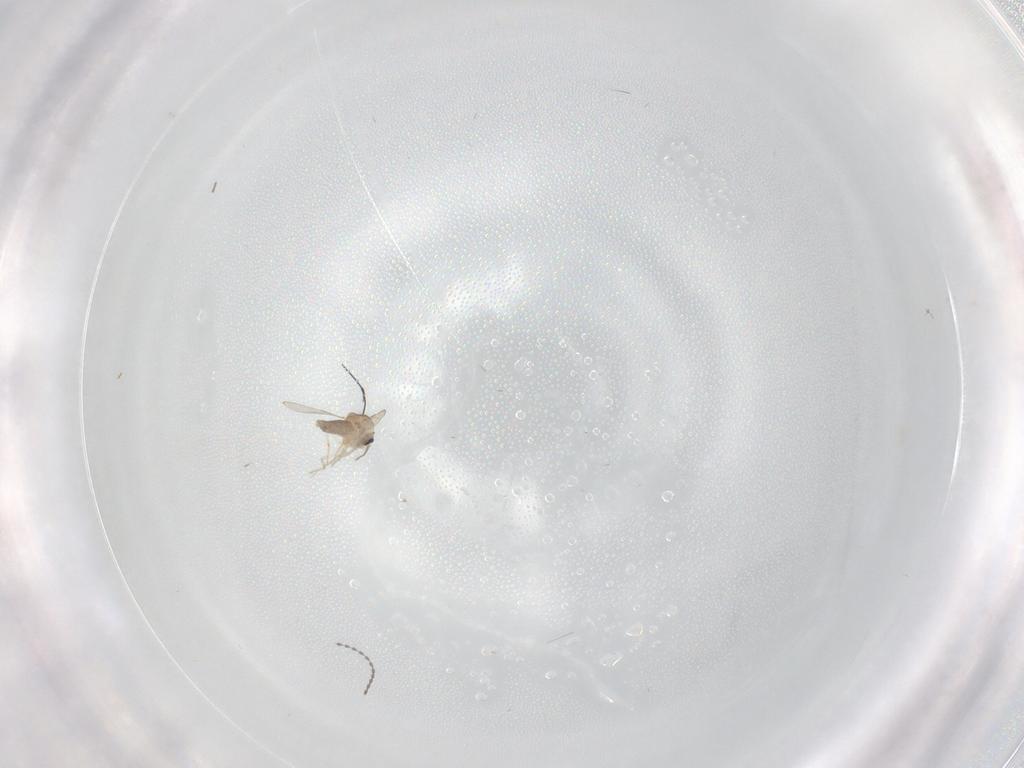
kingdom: Animalia
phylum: Arthropoda
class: Insecta
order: Diptera
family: Ceratopogonidae
